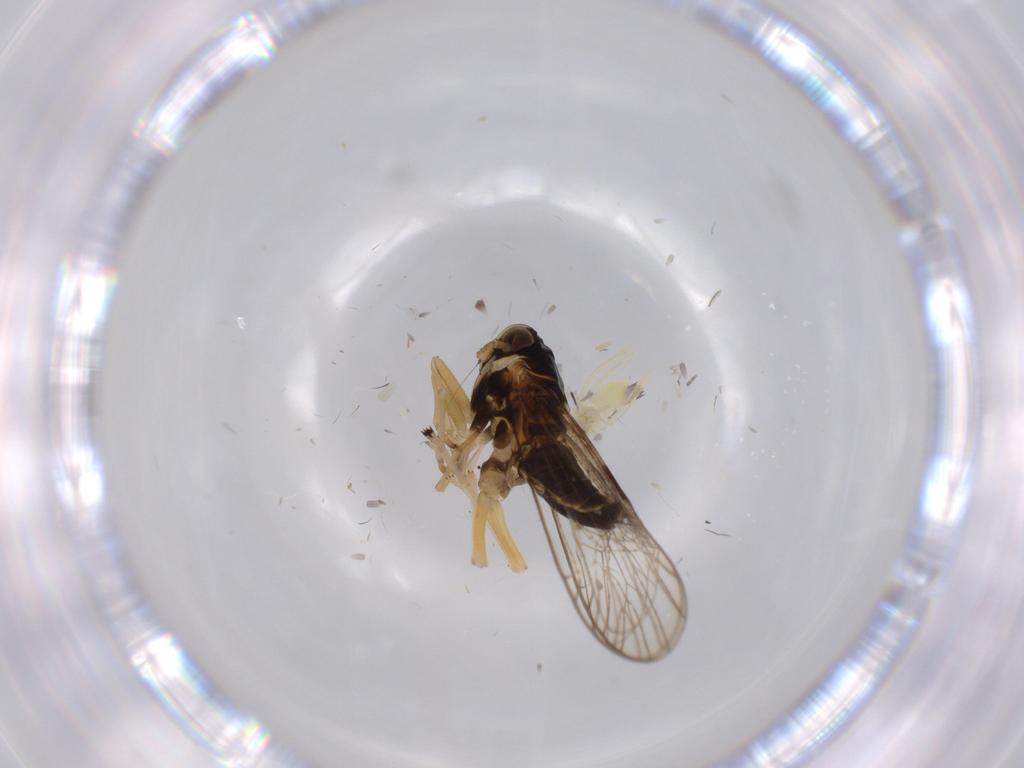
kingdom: Animalia
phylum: Arthropoda
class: Insecta
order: Hemiptera
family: Aleyrodidae
